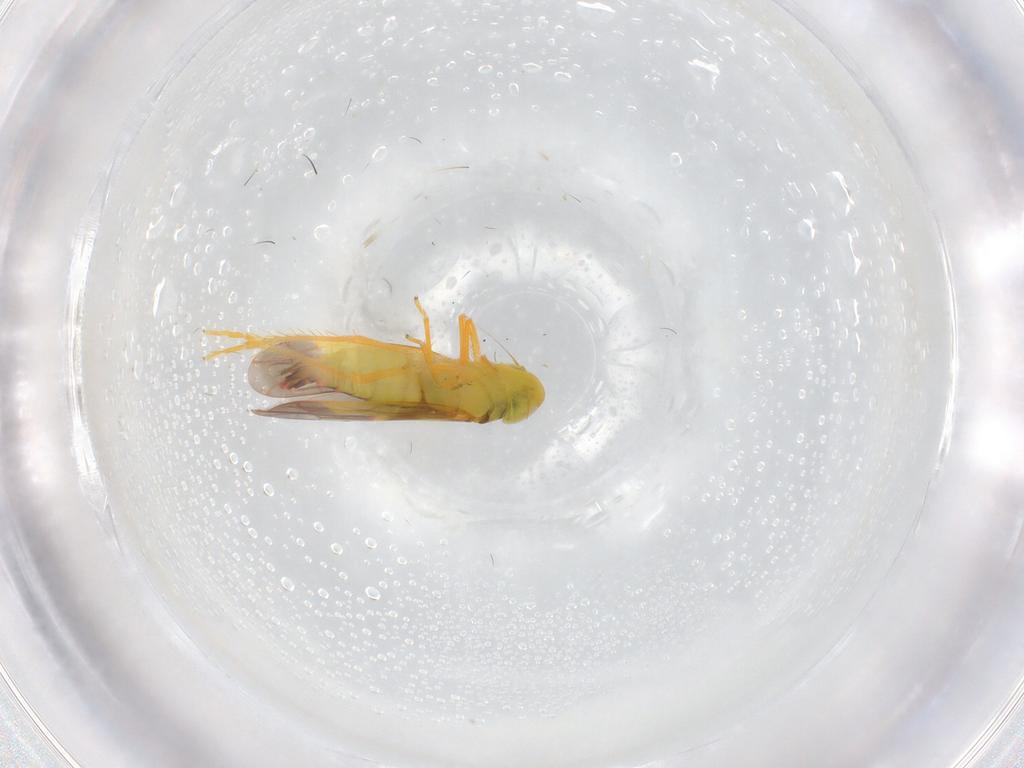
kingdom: Animalia
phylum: Arthropoda
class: Insecta
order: Hemiptera
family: Cicadellidae
